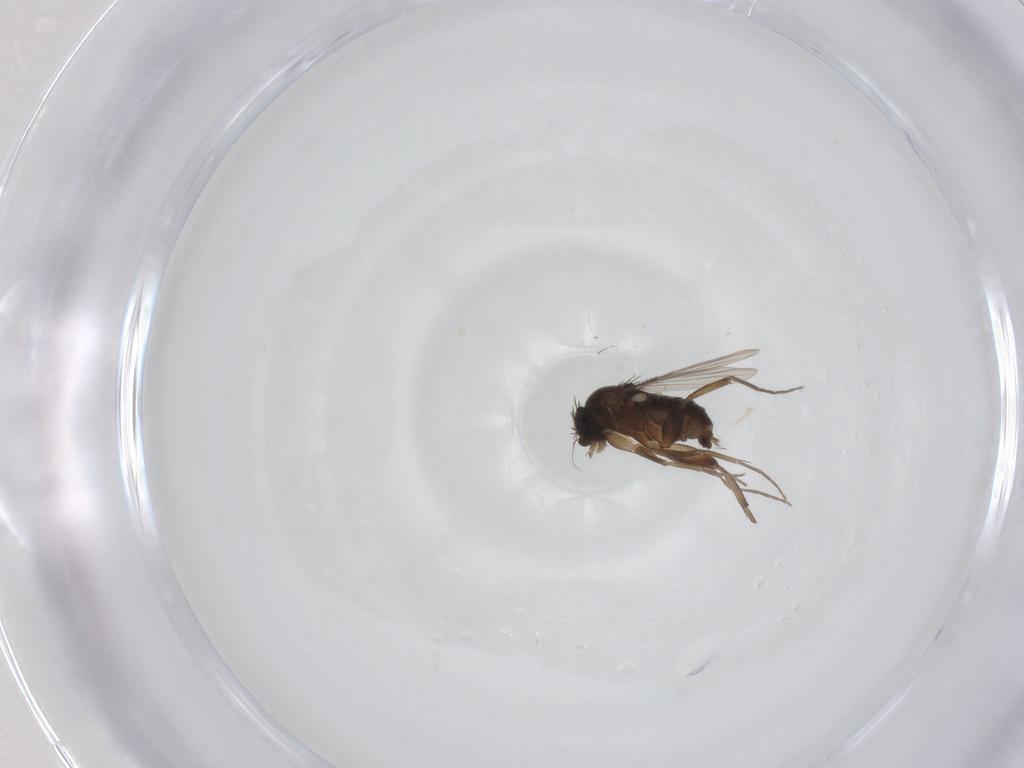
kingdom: Animalia
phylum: Arthropoda
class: Insecta
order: Diptera
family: Phoridae
